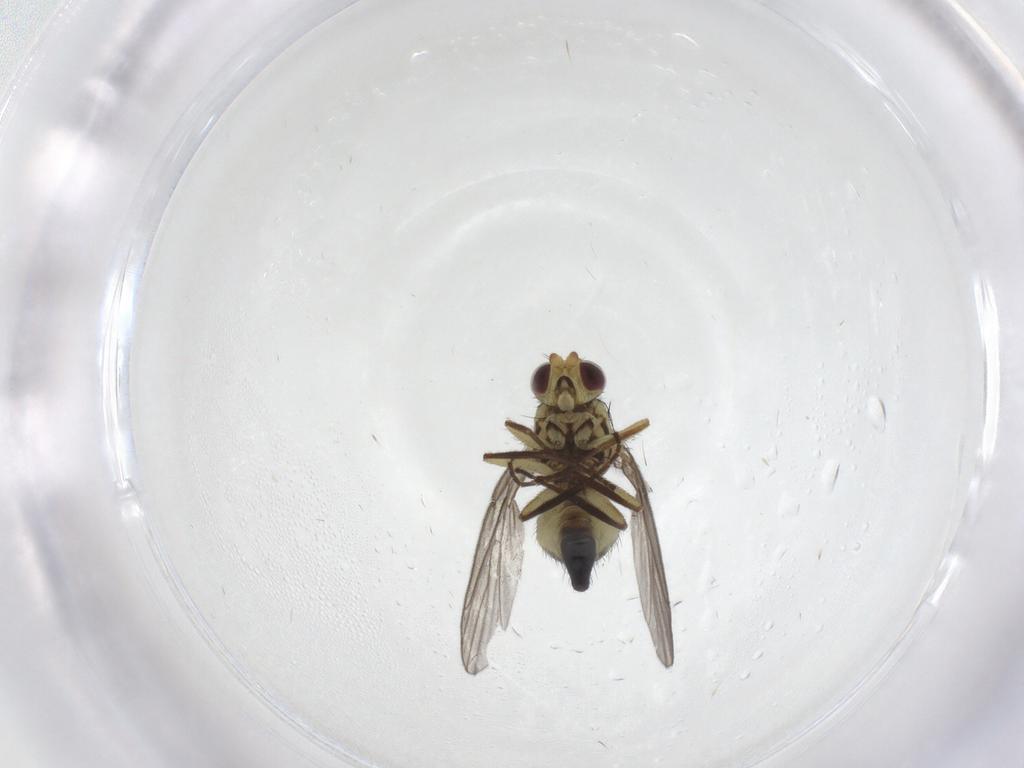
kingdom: Animalia
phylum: Arthropoda
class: Insecta
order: Diptera
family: Agromyzidae
